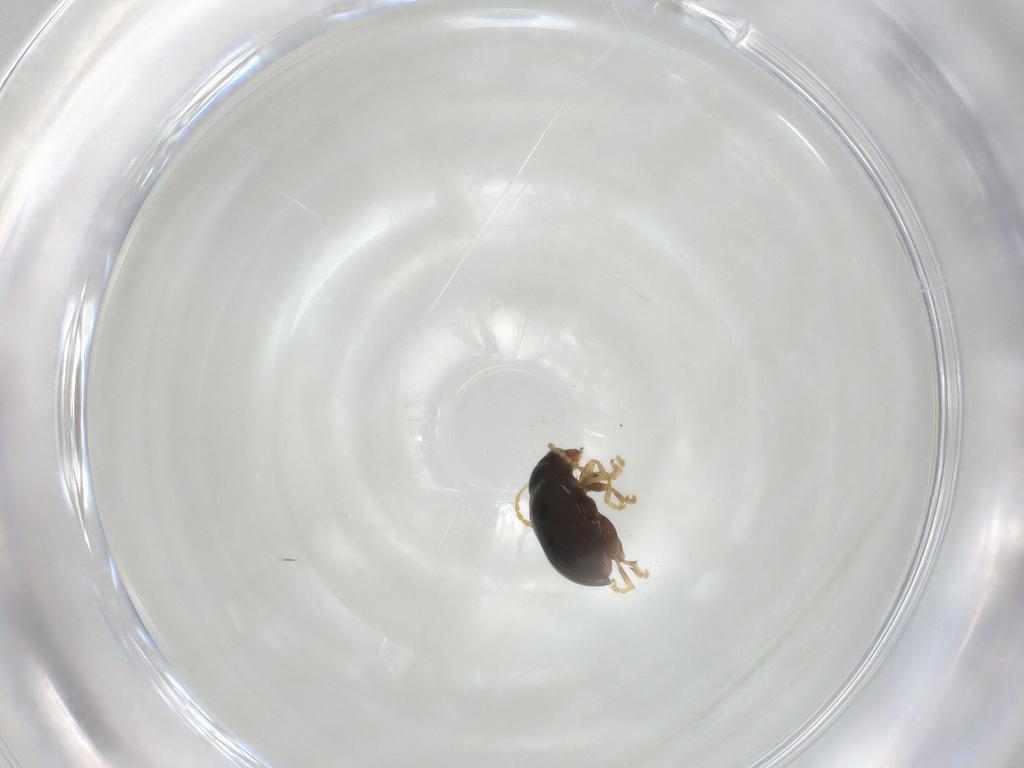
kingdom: Animalia
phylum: Arthropoda
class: Insecta
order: Coleoptera
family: Chrysomelidae
